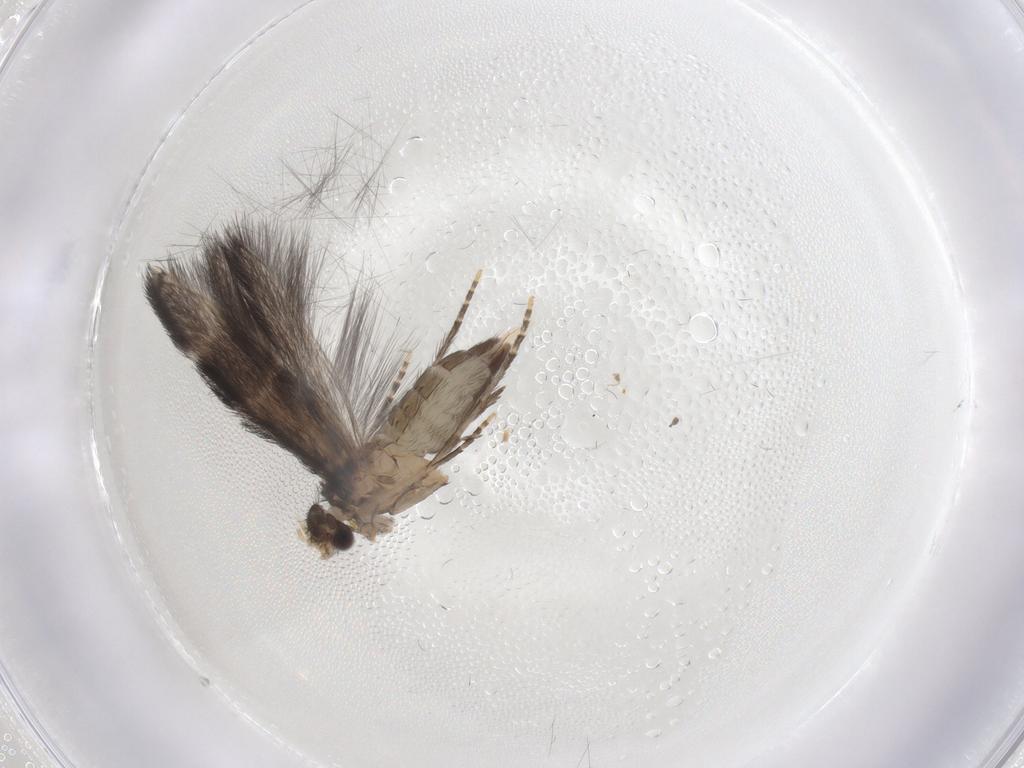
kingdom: Animalia
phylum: Arthropoda
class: Insecta
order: Trichoptera
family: Hydroptilidae
